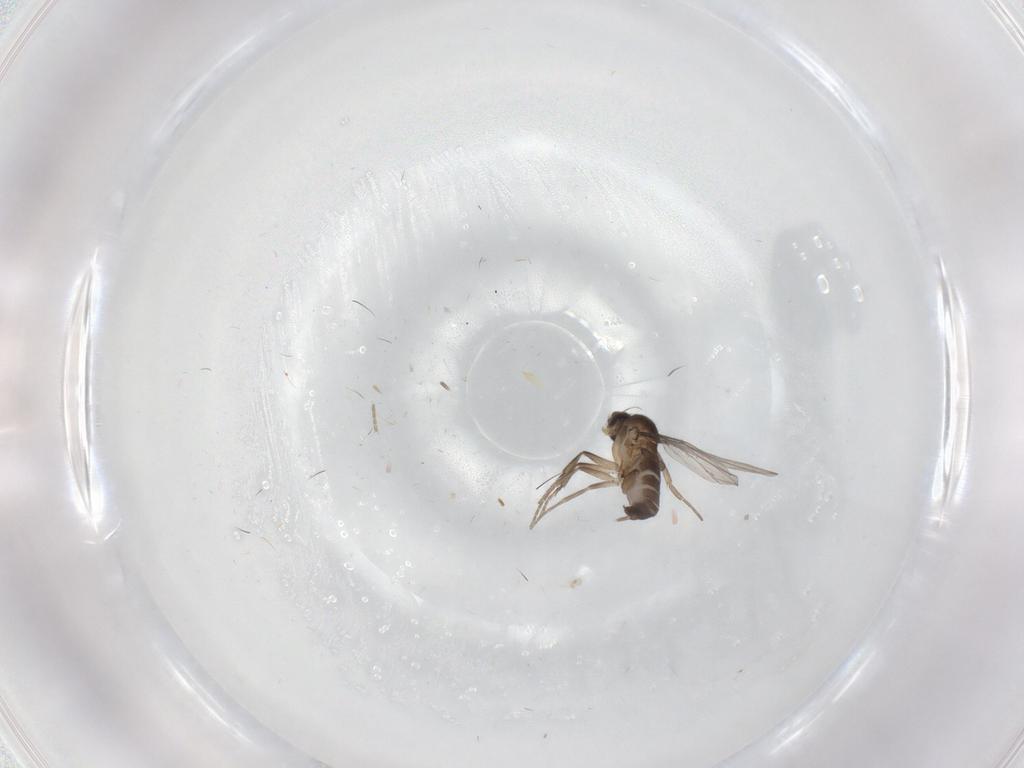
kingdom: Animalia
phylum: Arthropoda
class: Insecta
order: Diptera
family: Phoridae
